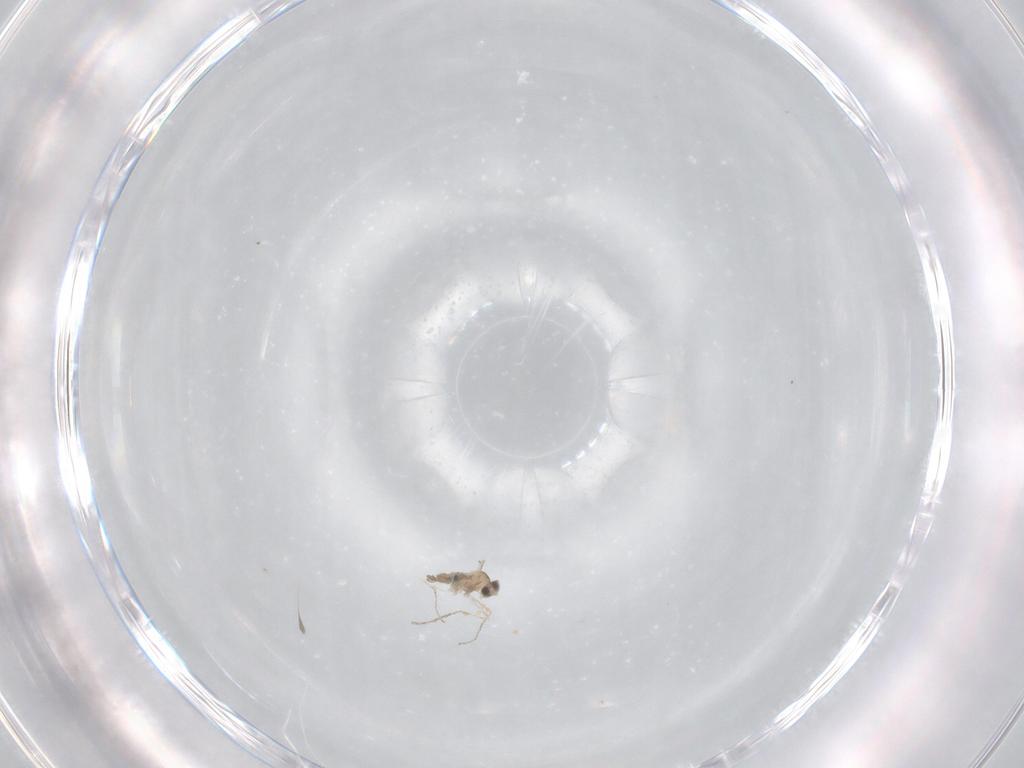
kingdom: Animalia
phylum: Arthropoda
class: Insecta
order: Diptera
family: Cecidomyiidae
